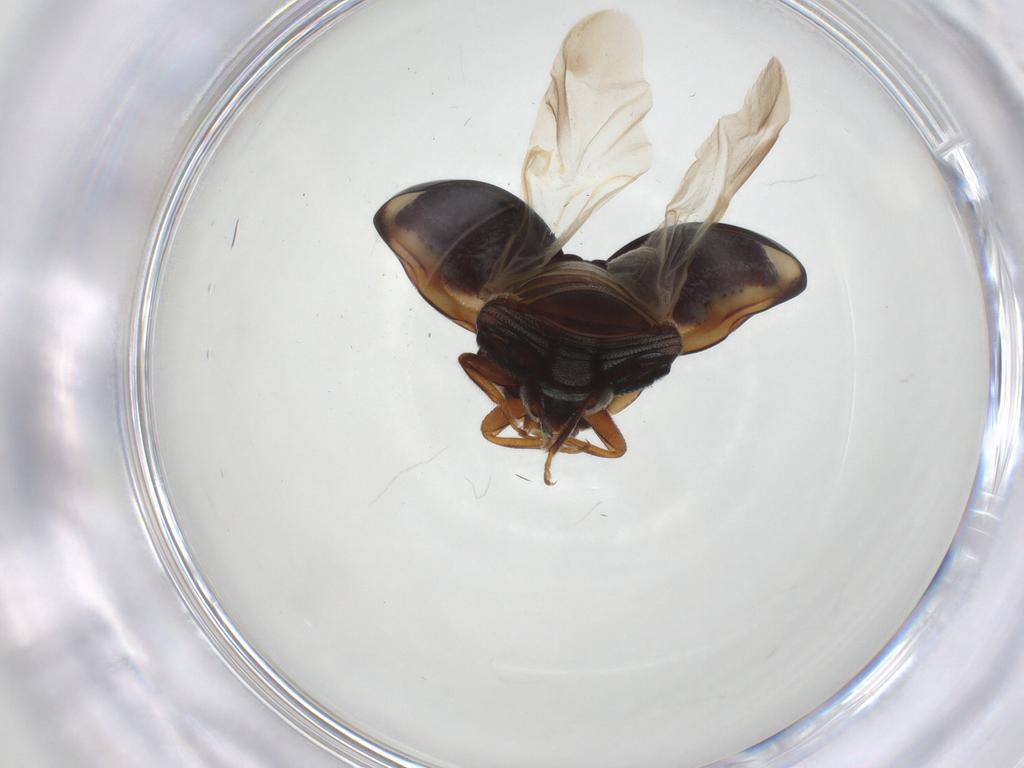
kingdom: Animalia
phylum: Arthropoda
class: Insecta
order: Coleoptera
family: Coccinellidae
